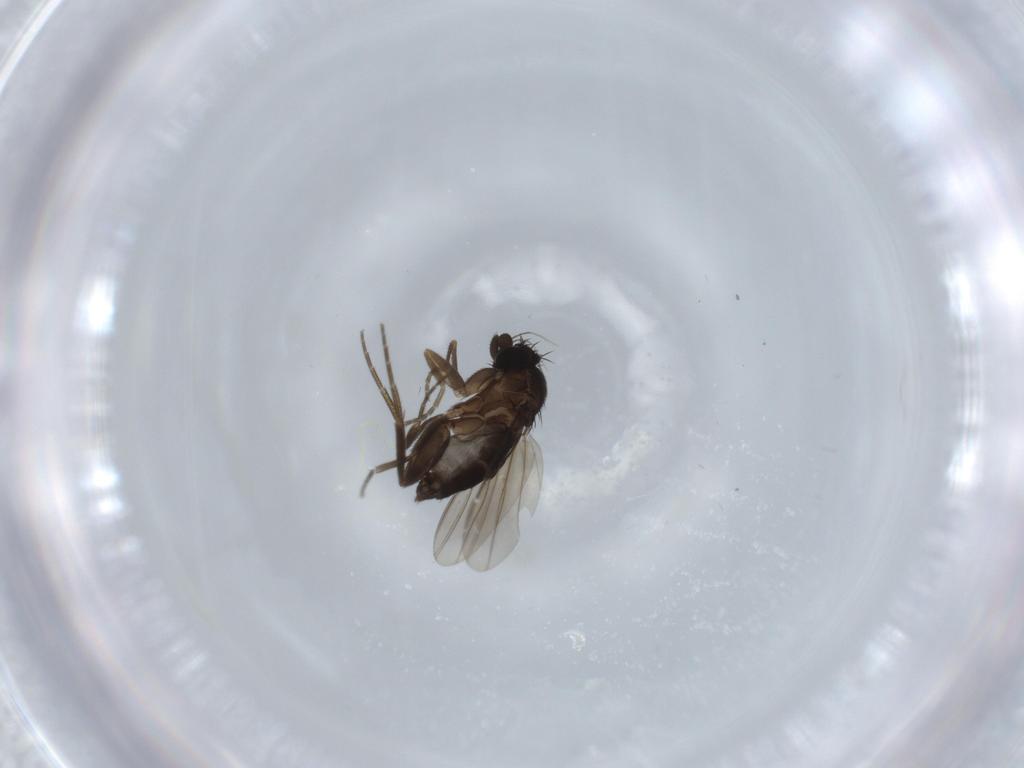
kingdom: Animalia
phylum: Arthropoda
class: Insecta
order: Diptera
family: Phoridae
